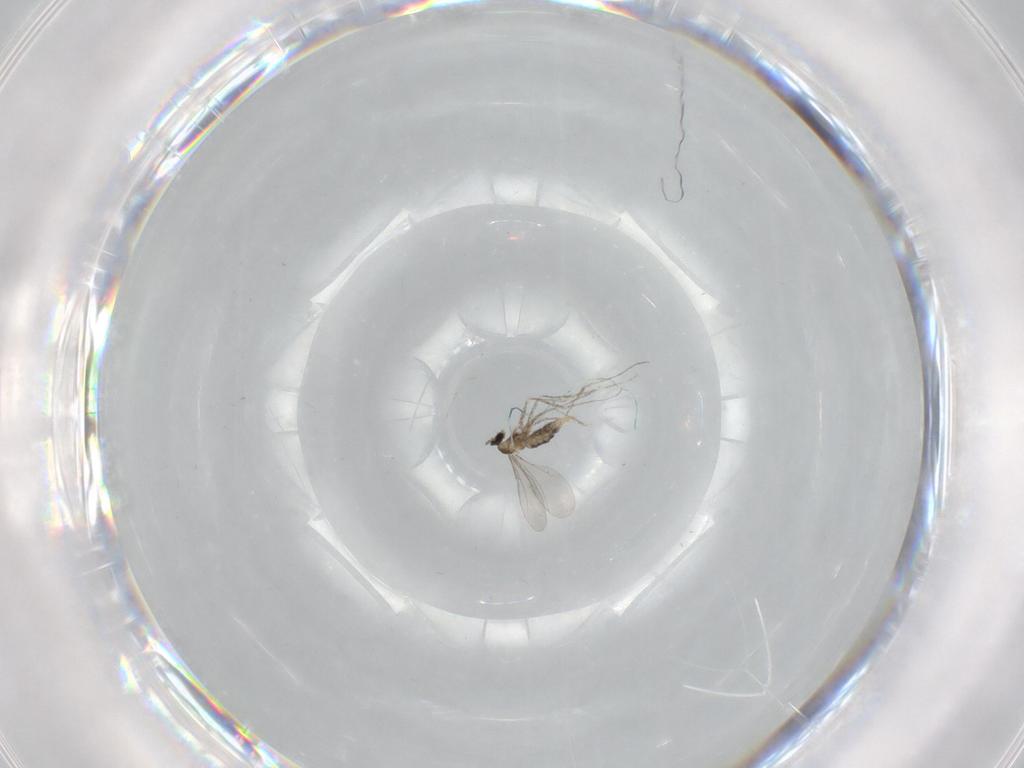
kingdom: Animalia
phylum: Arthropoda
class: Insecta
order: Diptera
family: Cecidomyiidae
